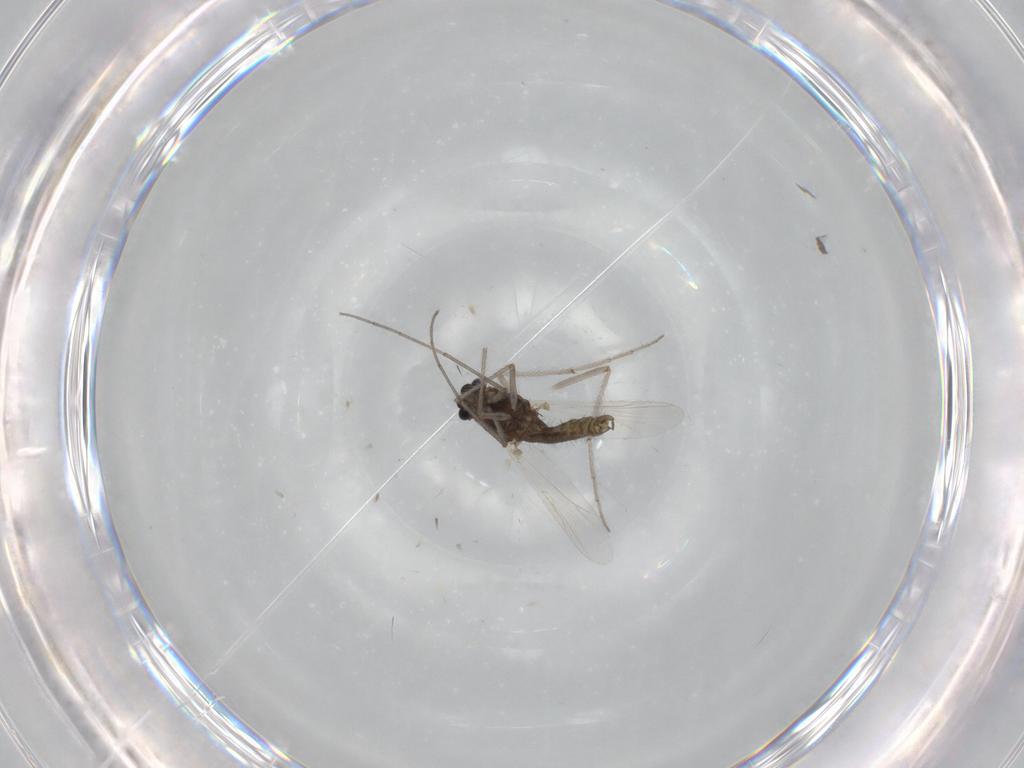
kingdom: Animalia
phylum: Arthropoda
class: Insecta
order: Diptera
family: Chironomidae
